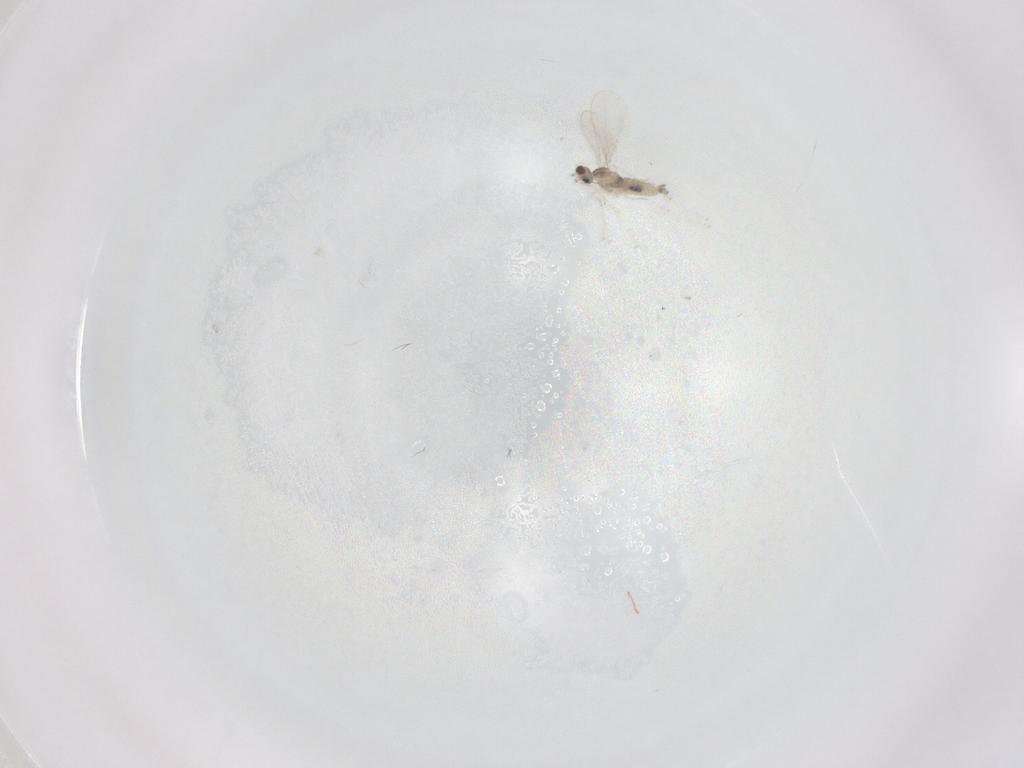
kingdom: Animalia
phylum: Arthropoda
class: Insecta
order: Diptera
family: Cecidomyiidae
